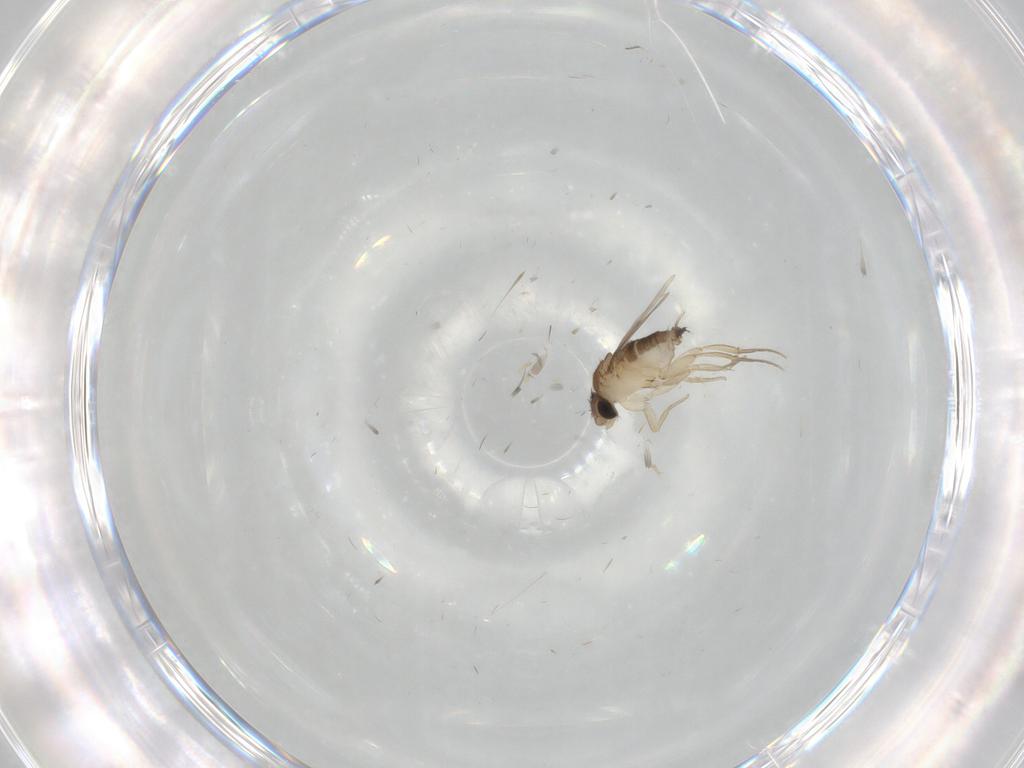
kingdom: Animalia
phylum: Arthropoda
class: Insecta
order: Diptera
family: Phoridae
